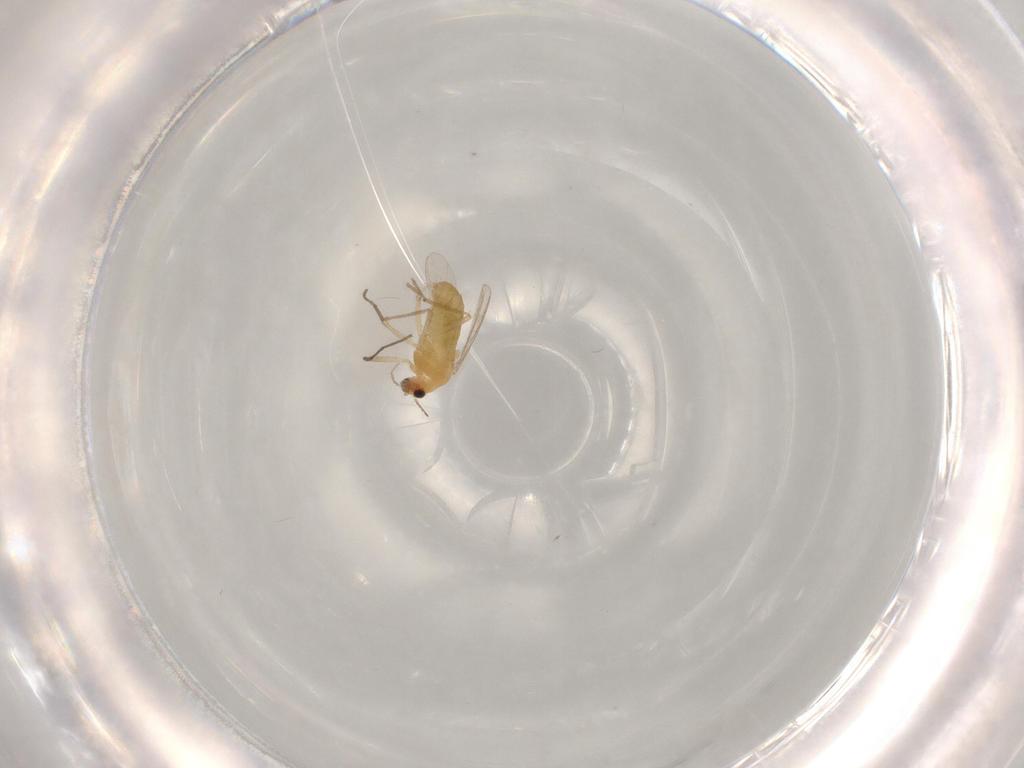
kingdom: Animalia
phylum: Arthropoda
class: Insecta
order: Diptera
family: Chironomidae
